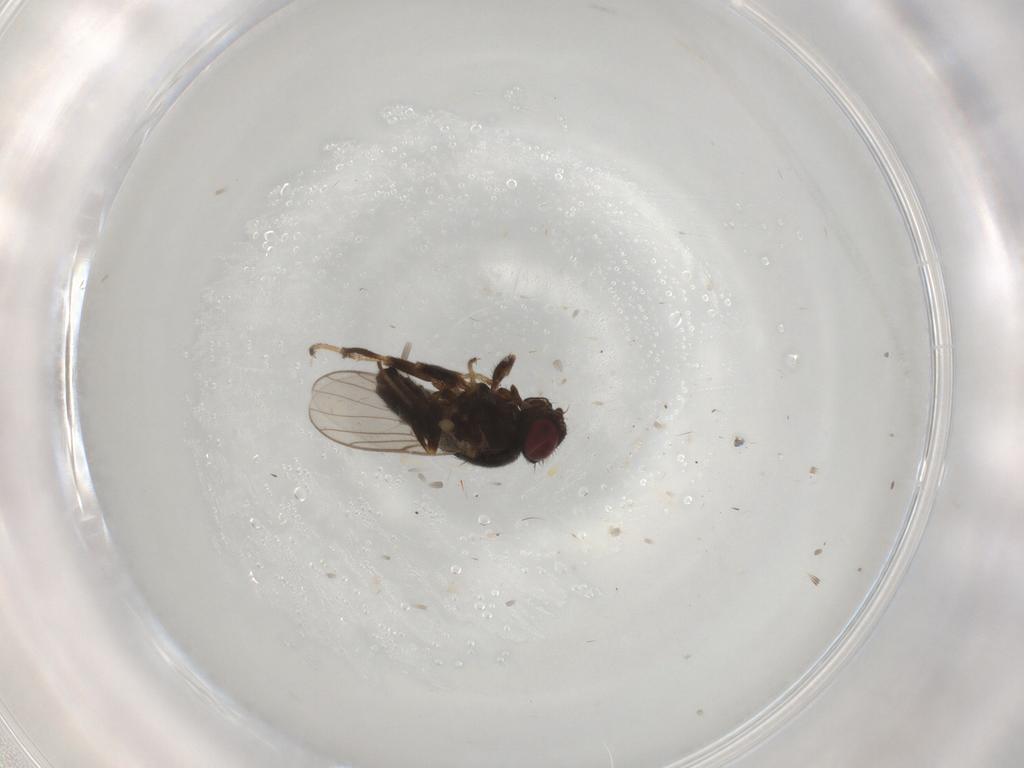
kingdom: Animalia
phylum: Arthropoda
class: Insecta
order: Diptera
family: Chloropidae
